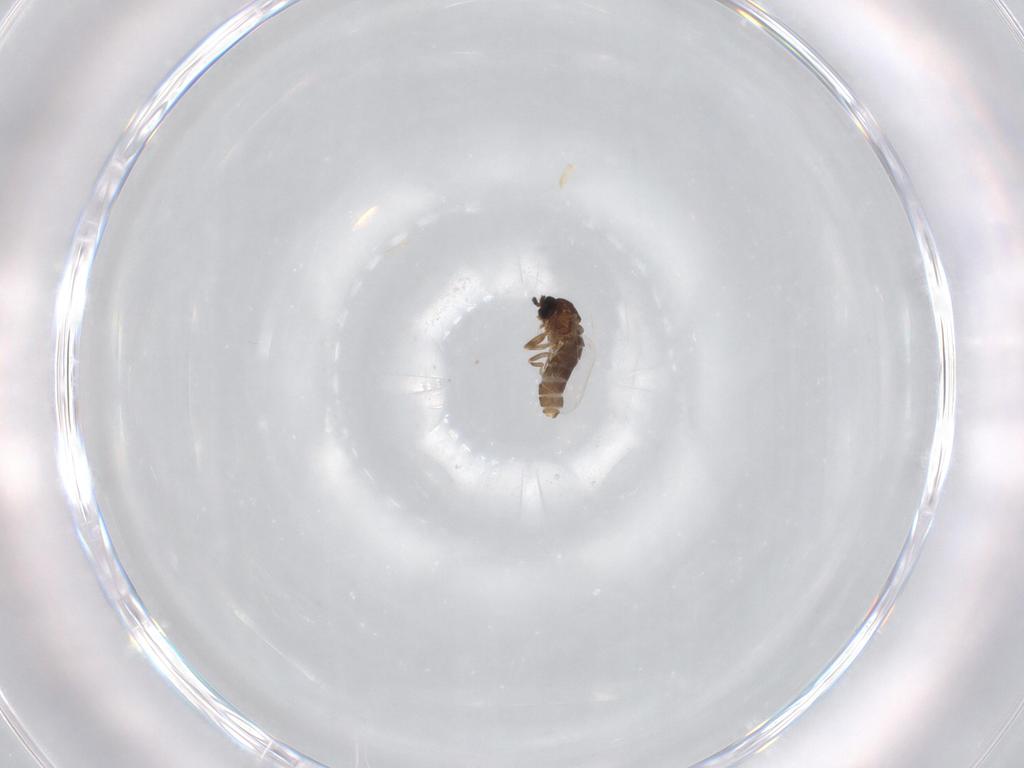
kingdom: Animalia
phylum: Arthropoda
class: Insecta
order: Diptera
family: Scatopsidae
